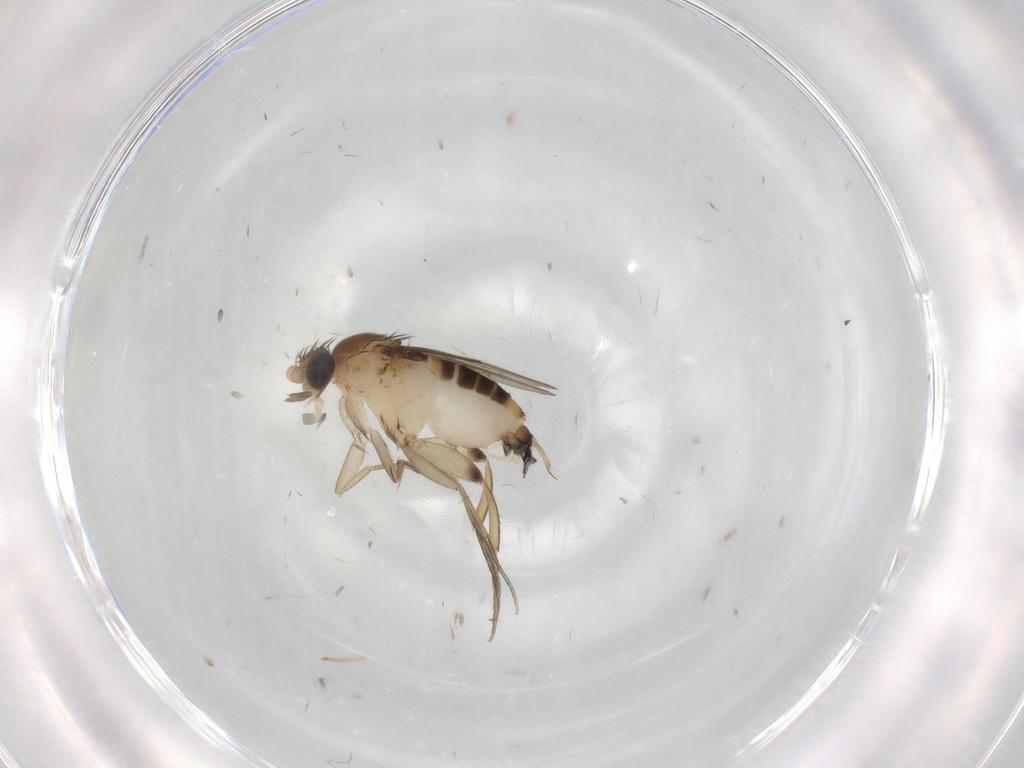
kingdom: Animalia
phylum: Arthropoda
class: Insecta
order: Diptera
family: Phoridae
